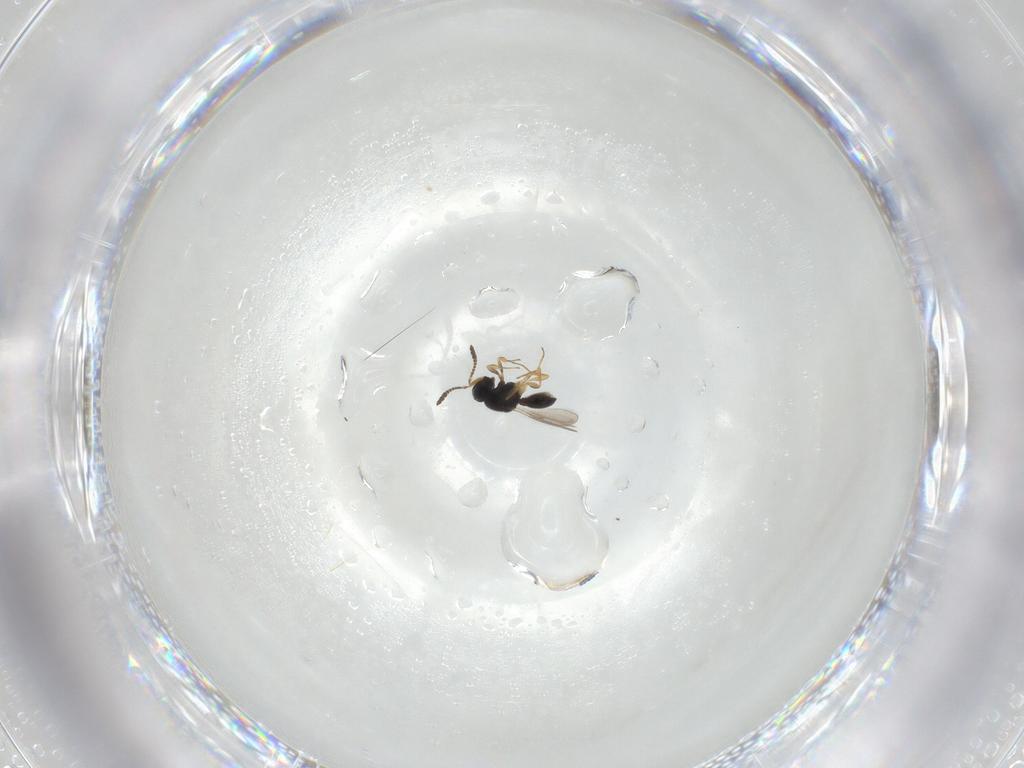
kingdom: Animalia
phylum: Arthropoda
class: Insecta
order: Hymenoptera
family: Scelionidae
